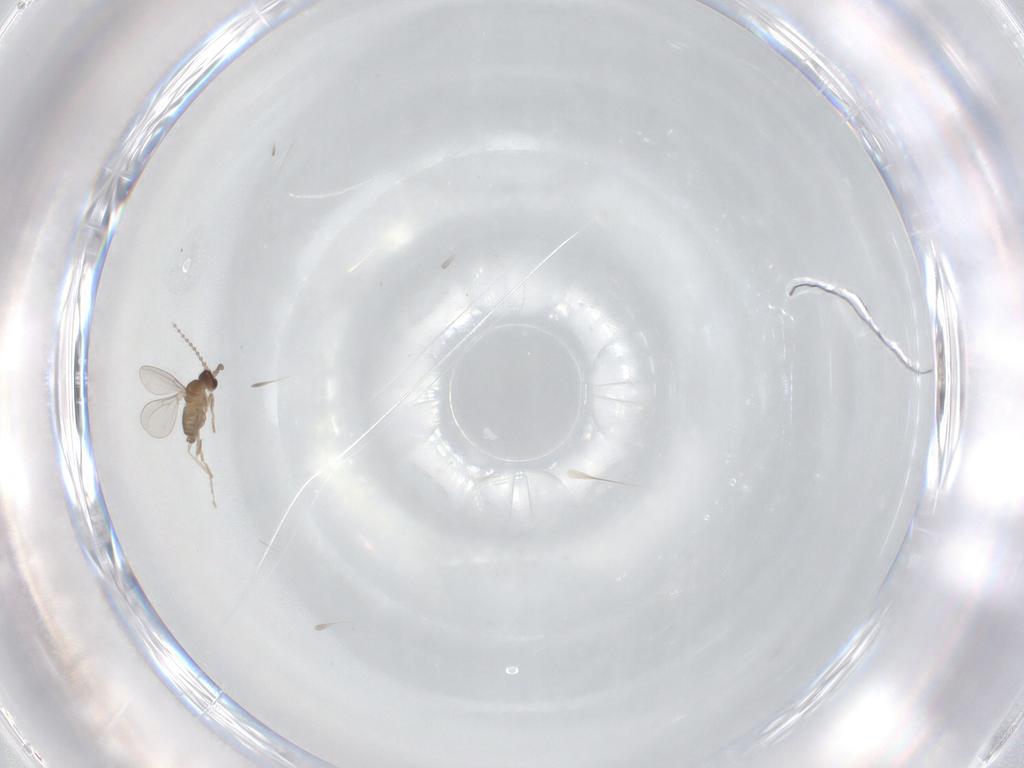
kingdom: Animalia
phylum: Arthropoda
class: Insecta
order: Diptera
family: Cecidomyiidae
